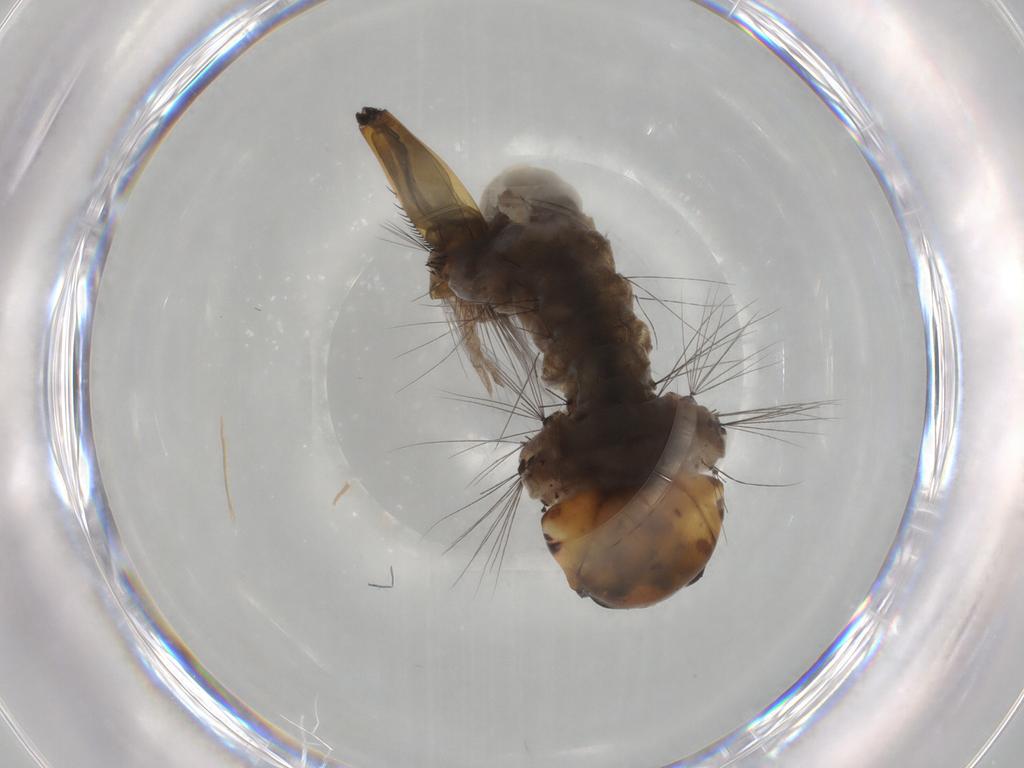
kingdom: Animalia
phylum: Arthropoda
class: Insecta
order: Diptera
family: Culicidae
